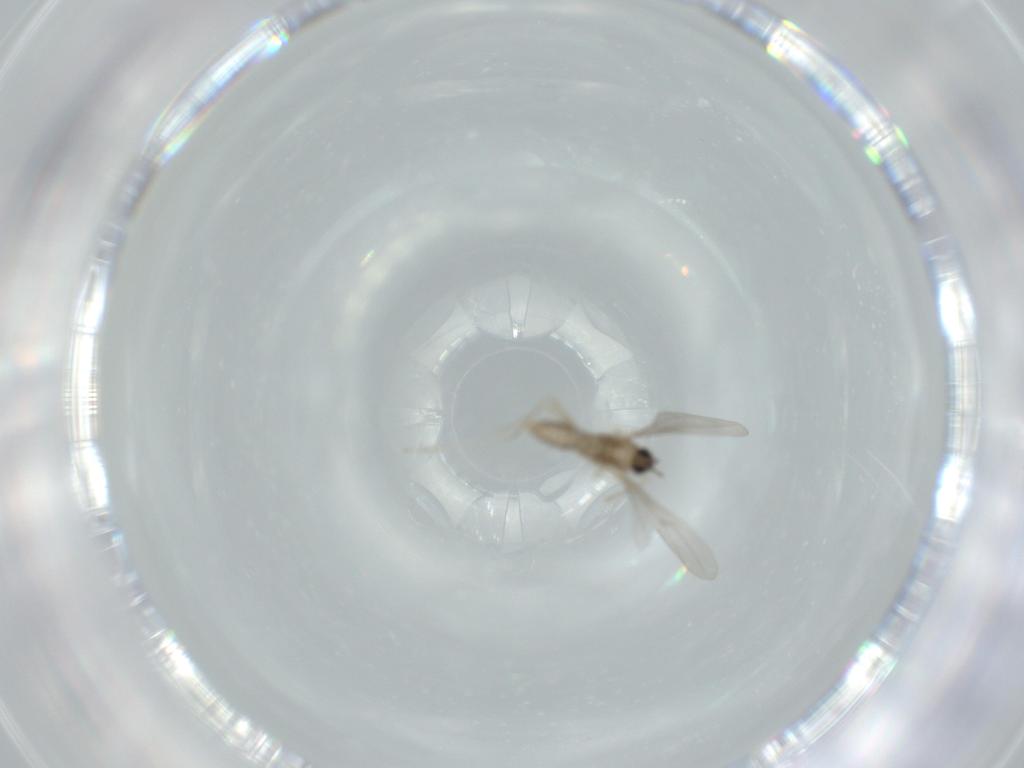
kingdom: Animalia
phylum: Arthropoda
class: Insecta
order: Diptera
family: Cecidomyiidae
